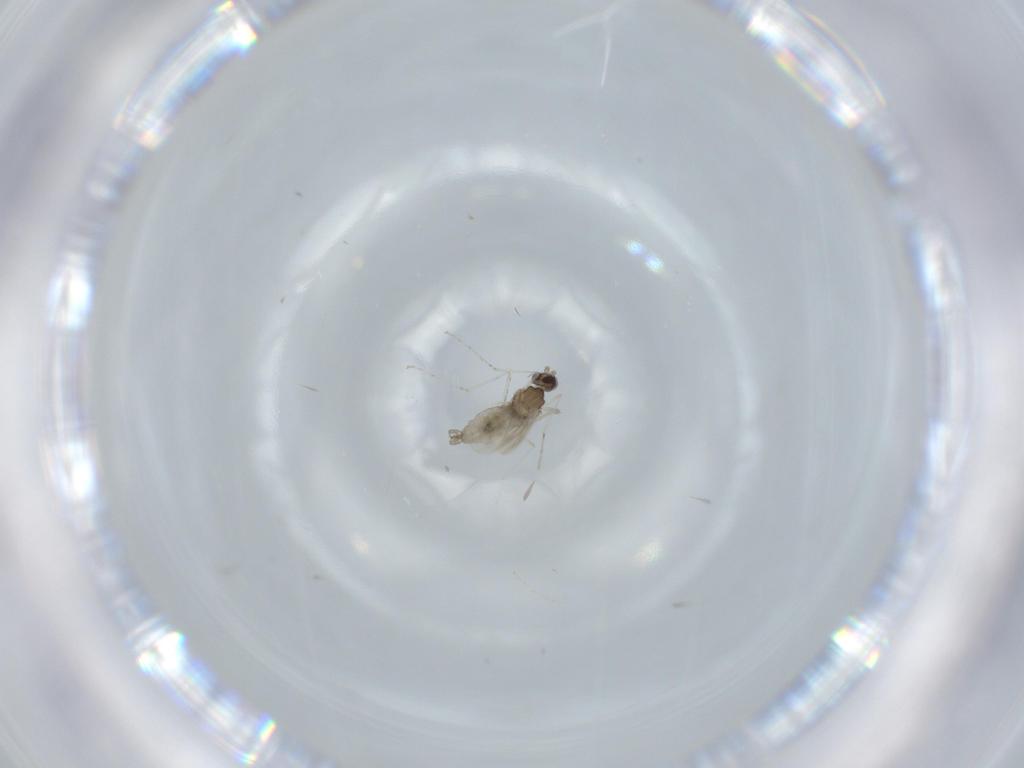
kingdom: Animalia
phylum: Arthropoda
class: Insecta
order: Diptera
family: Cecidomyiidae
